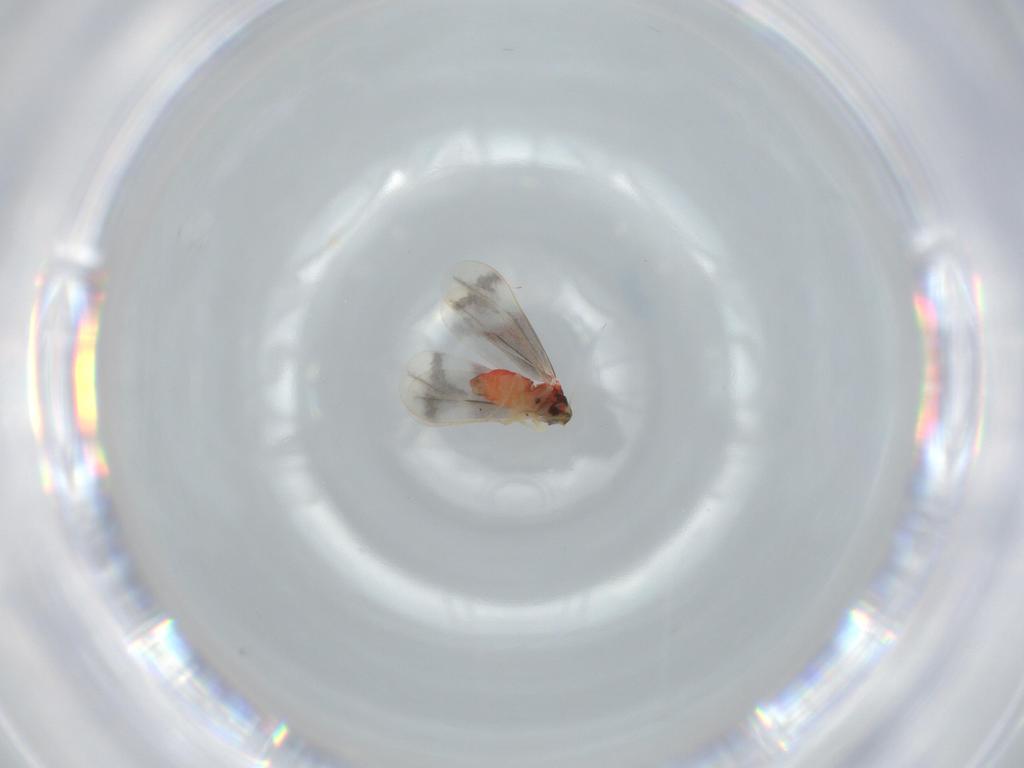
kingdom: Animalia
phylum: Arthropoda
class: Insecta
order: Hemiptera
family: Aleyrodidae
